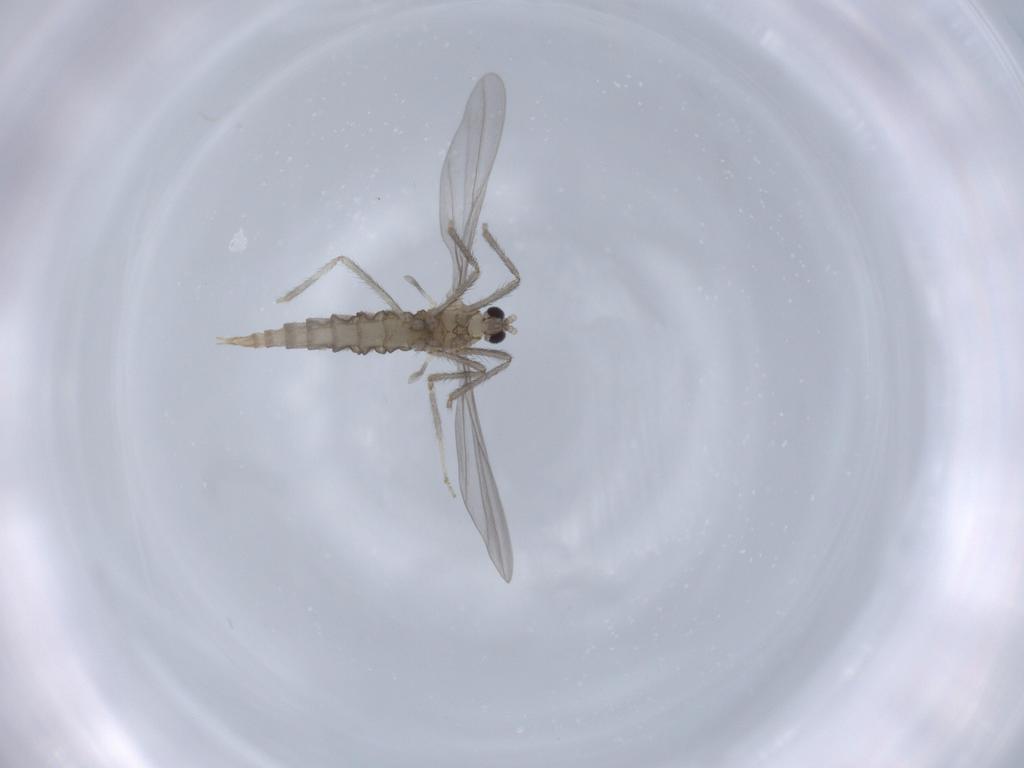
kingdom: Animalia
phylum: Arthropoda
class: Insecta
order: Diptera
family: Cecidomyiidae
